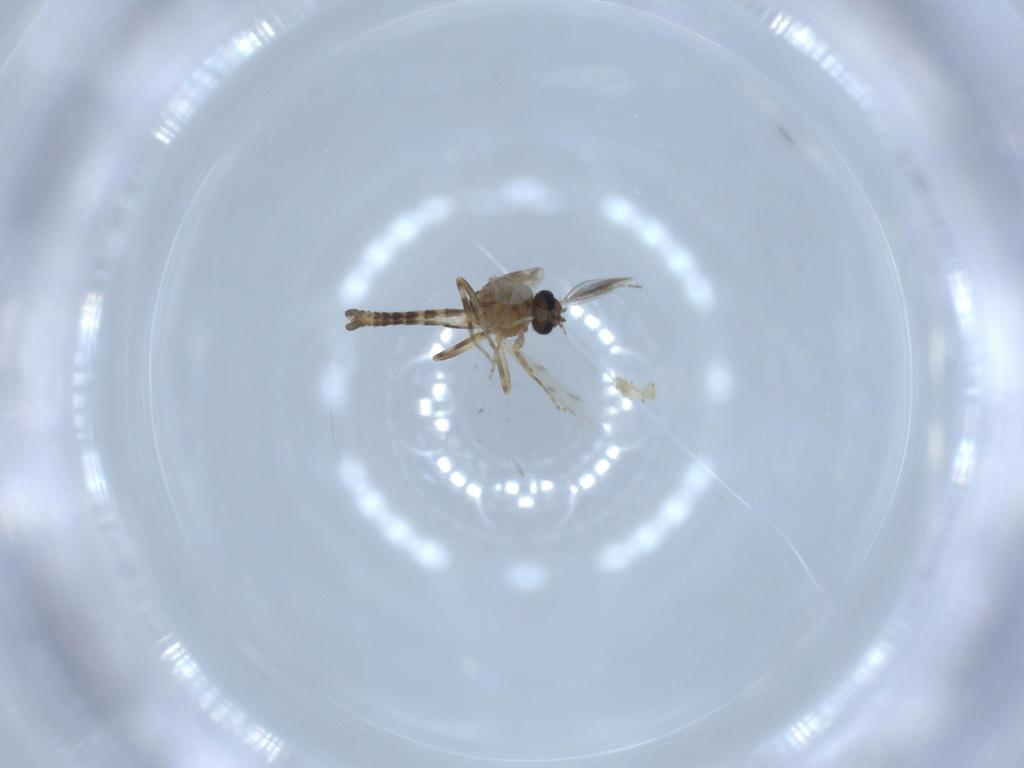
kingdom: Animalia
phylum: Arthropoda
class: Insecta
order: Diptera
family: Ceratopogonidae
